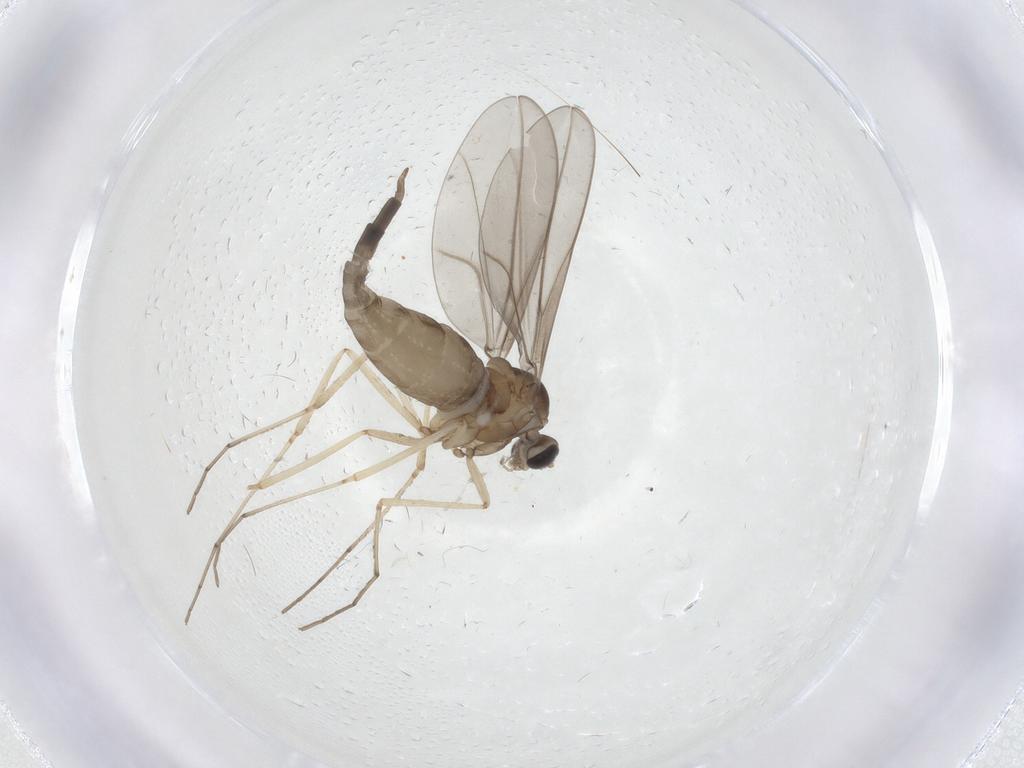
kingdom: Animalia
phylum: Arthropoda
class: Insecta
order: Diptera
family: Cecidomyiidae
